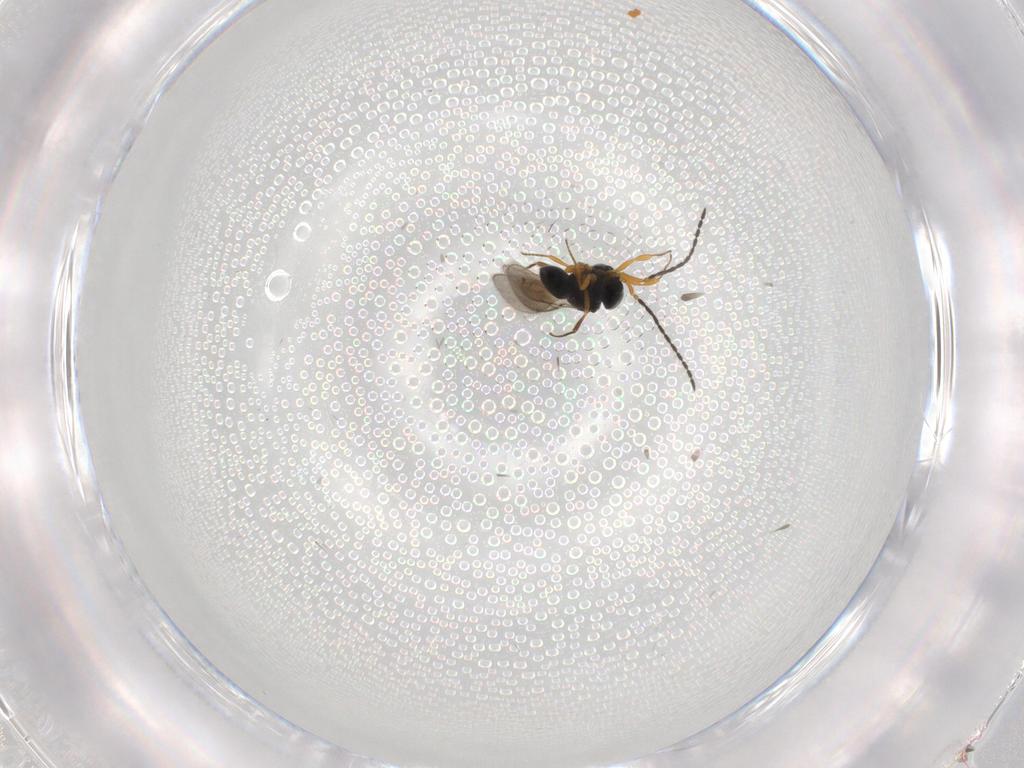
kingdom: Animalia
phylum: Arthropoda
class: Insecta
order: Hymenoptera
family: Scelionidae
